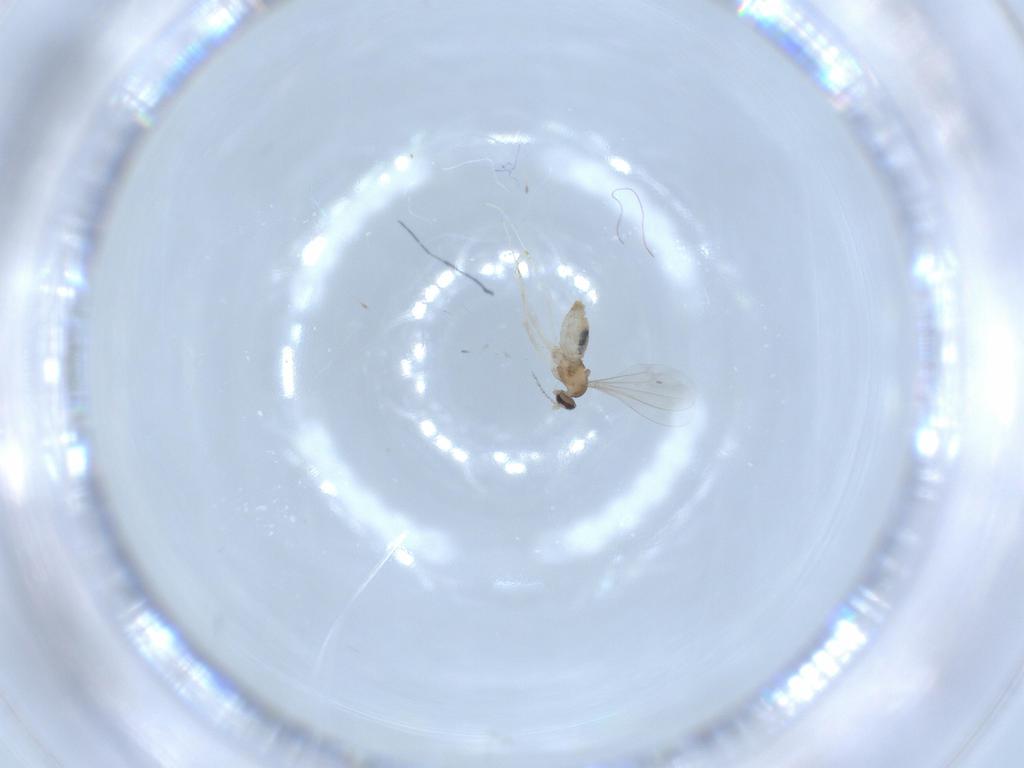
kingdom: Animalia
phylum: Arthropoda
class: Insecta
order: Diptera
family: Cecidomyiidae
